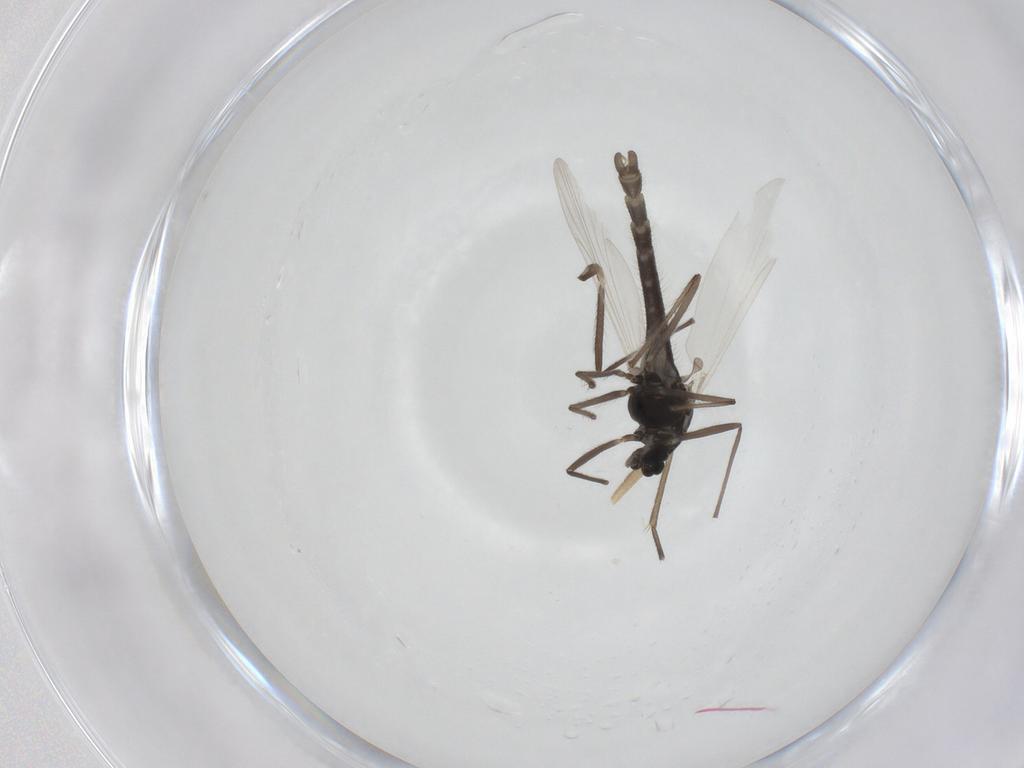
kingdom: Animalia
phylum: Arthropoda
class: Insecta
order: Diptera
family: Chironomidae
